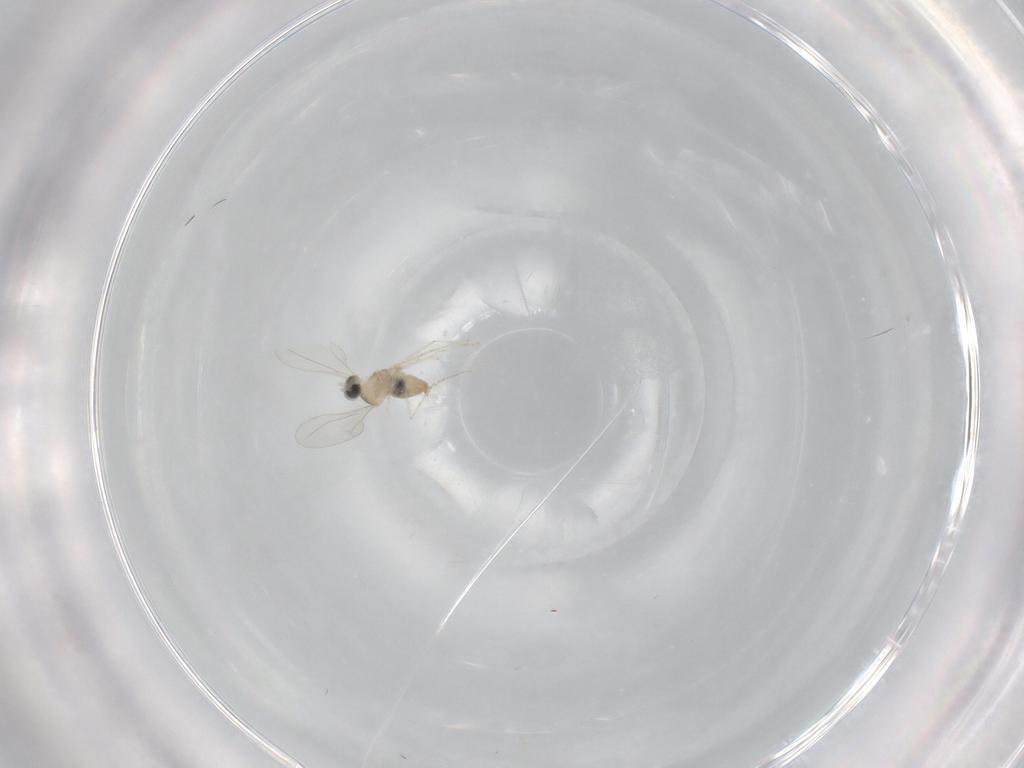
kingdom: Animalia
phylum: Arthropoda
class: Insecta
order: Diptera
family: Cecidomyiidae
